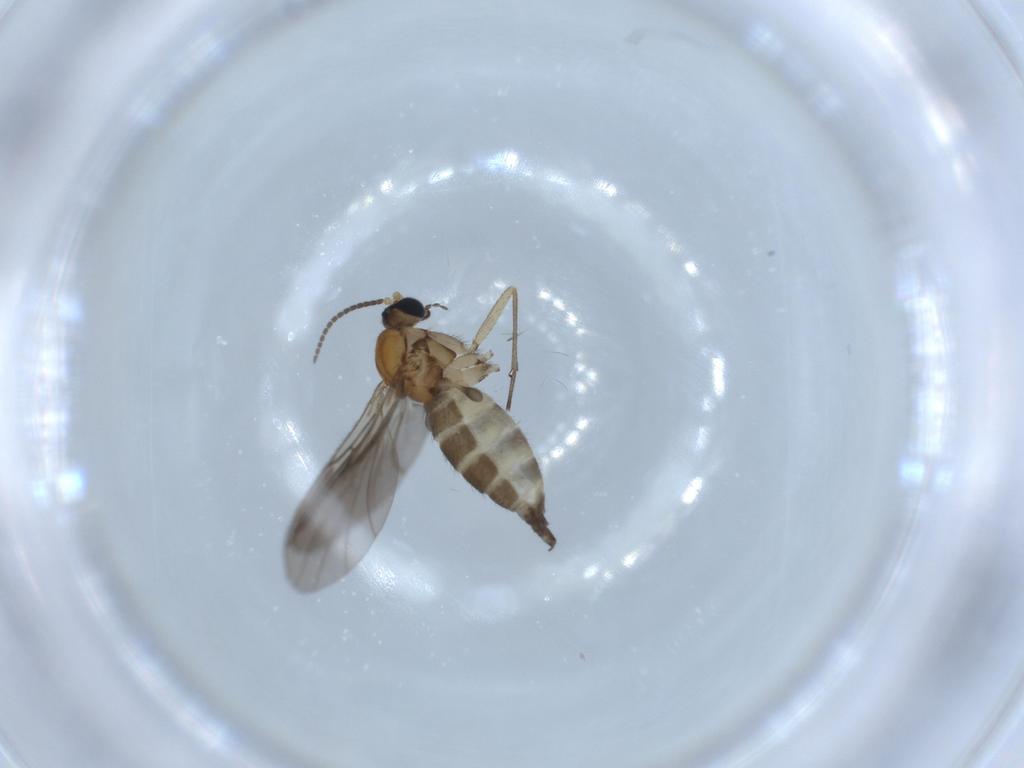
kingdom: Animalia
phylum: Arthropoda
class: Insecta
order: Diptera
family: Sciaridae
